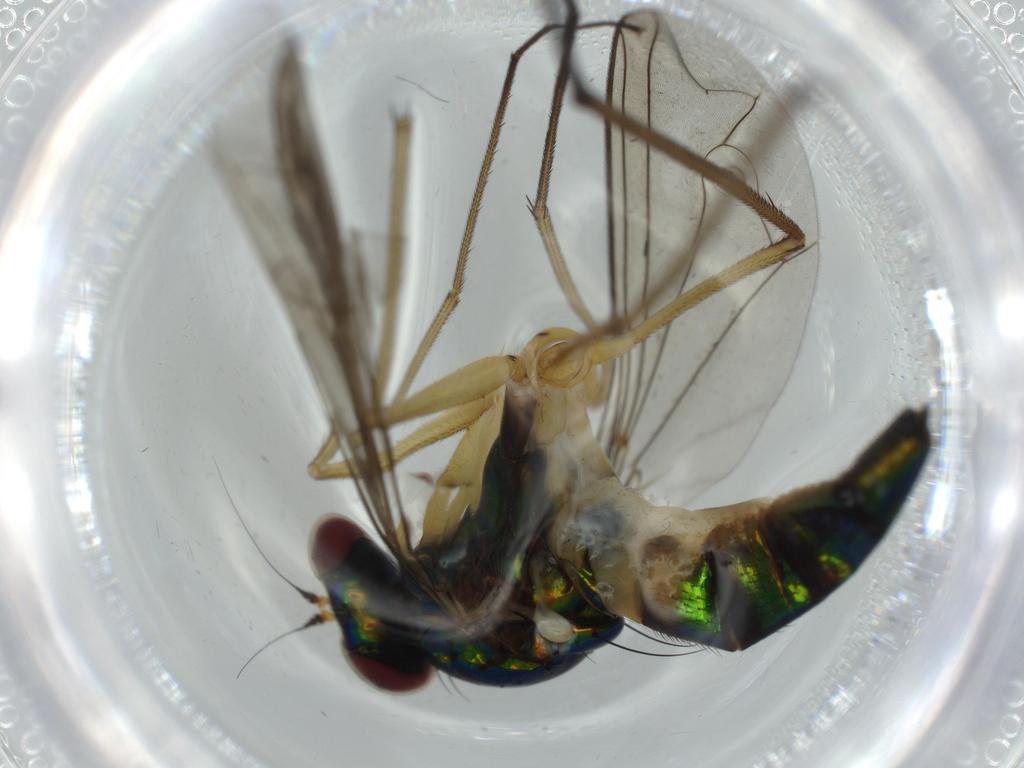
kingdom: Animalia
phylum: Arthropoda
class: Insecta
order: Diptera
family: Dolichopodidae
